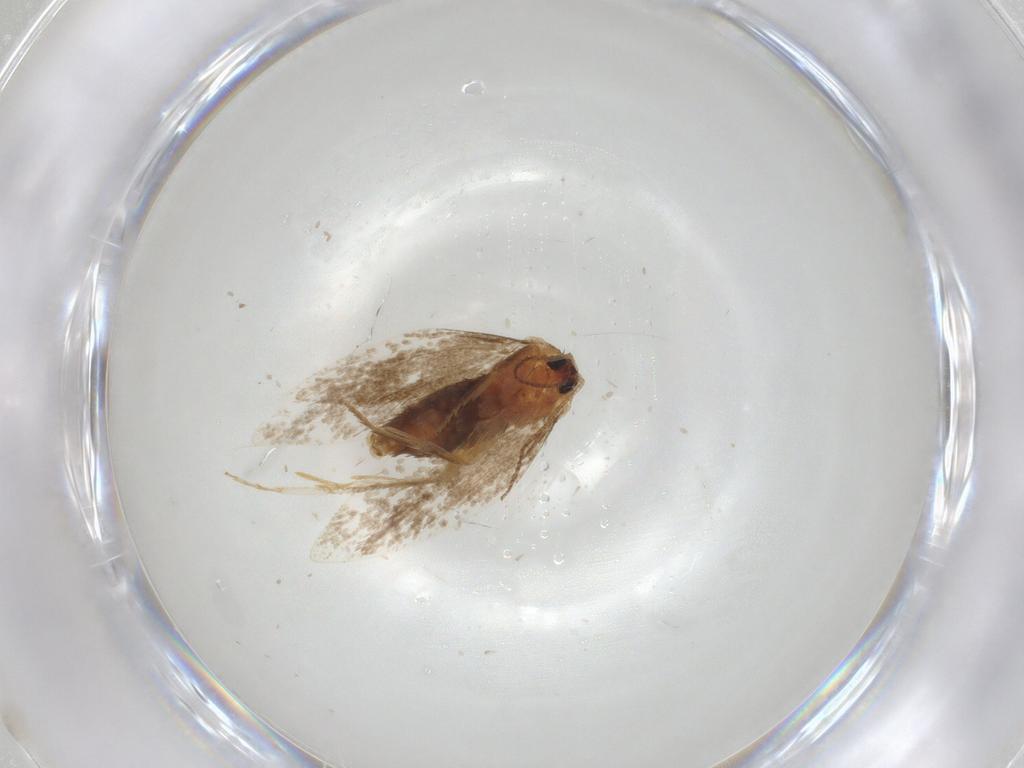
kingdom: Animalia
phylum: Arthropoda
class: Insecta
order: Lepidoptera
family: Eriocottidae
